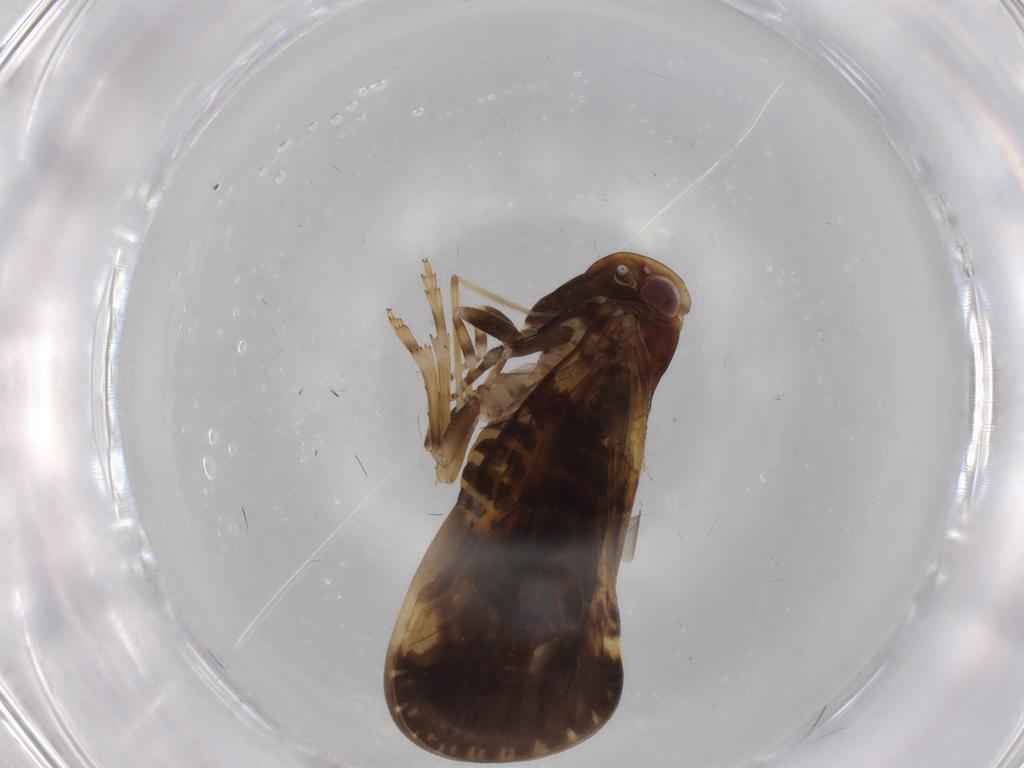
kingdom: Animalia
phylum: Arthropoda
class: Insecta
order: Hemiptera
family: Cixiidae
